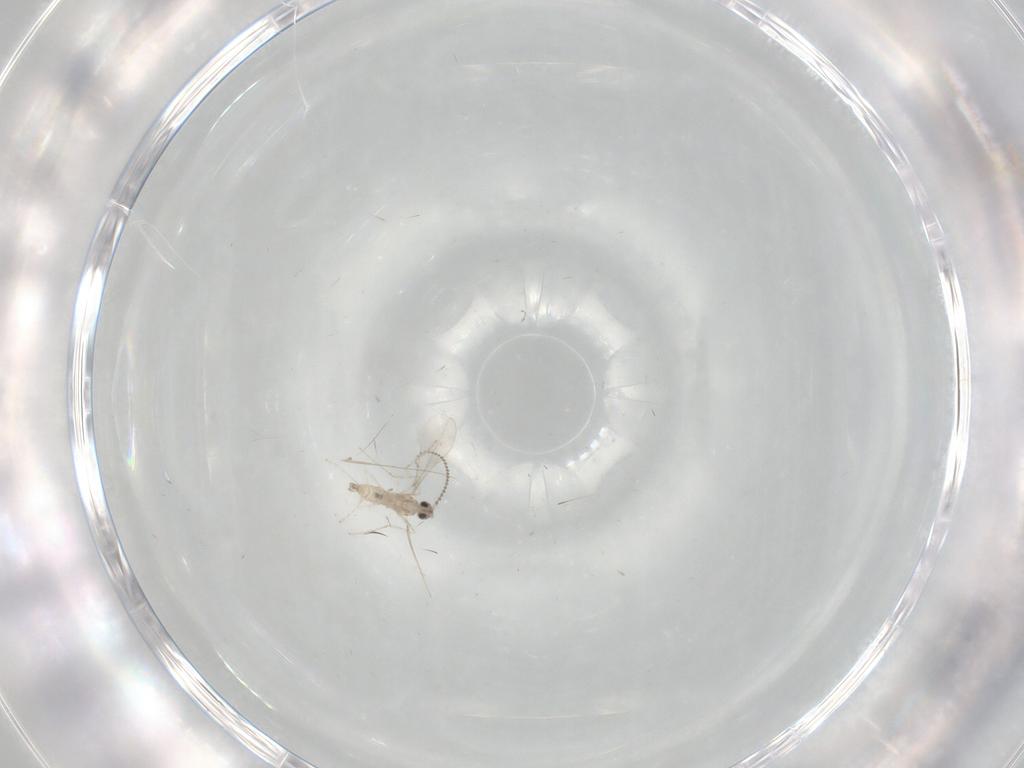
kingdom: Animalia
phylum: Arthropoda
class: Insecta
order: Diptera
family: Cecidomyiidae
